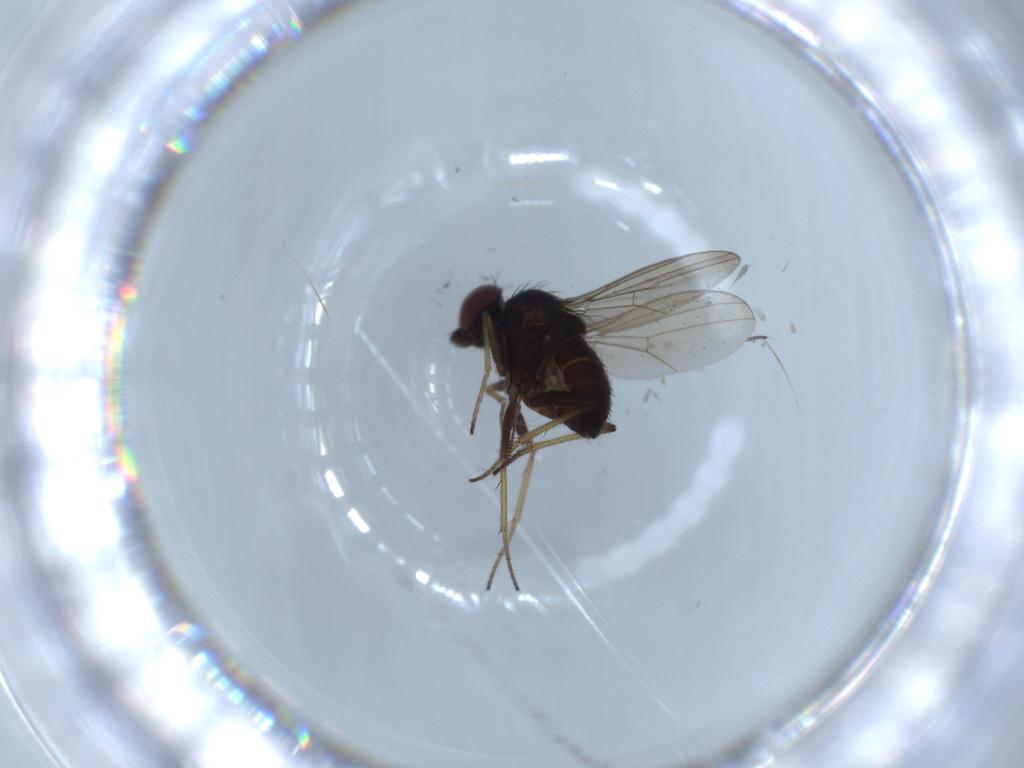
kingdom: Animalia
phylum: Arthropoda
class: Insecta
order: Diptera
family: Dolichopodidae
